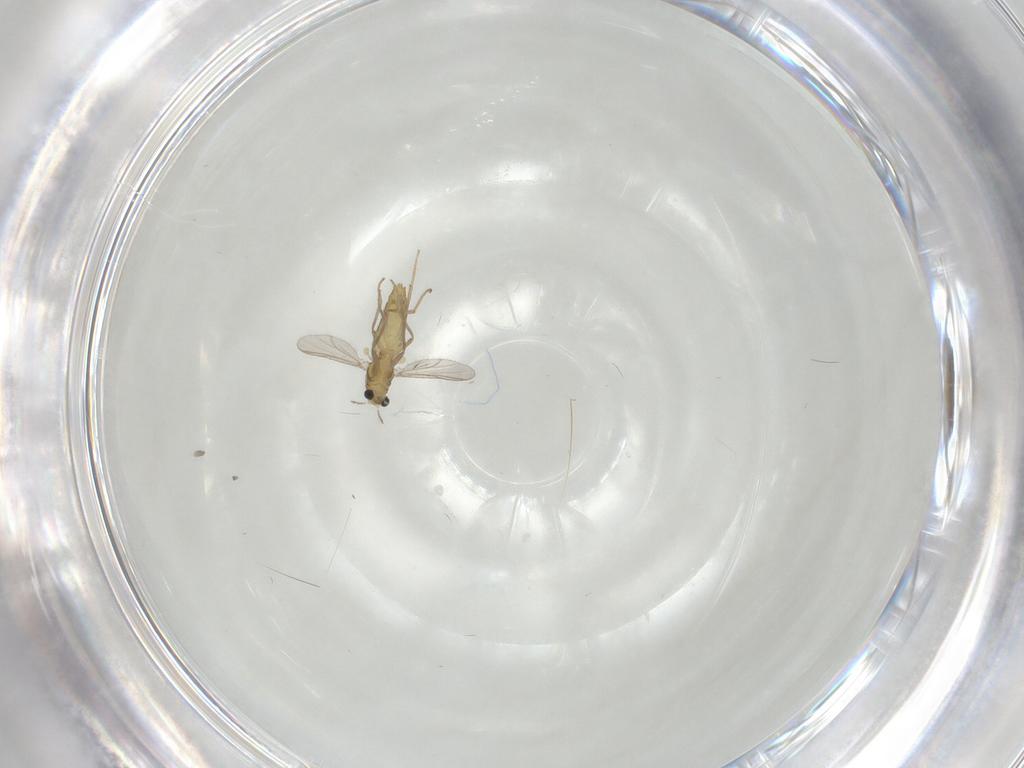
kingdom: Animalia
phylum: Arthropoda
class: Insecta
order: Diptera
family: Chironomidae
